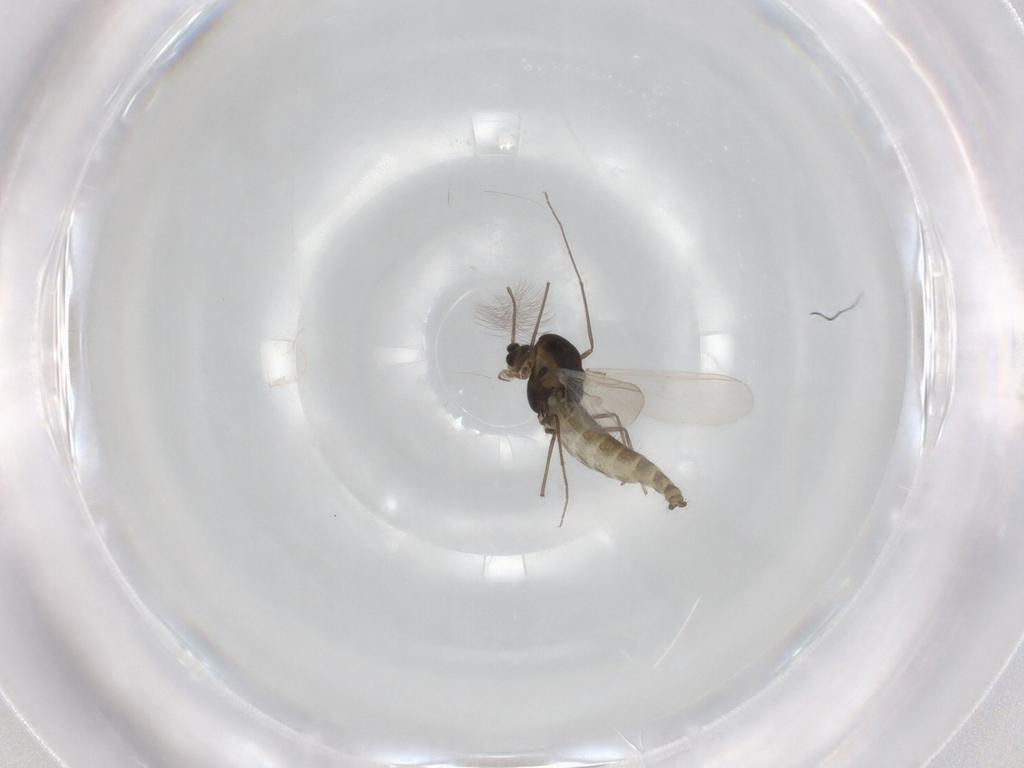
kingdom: Animalia
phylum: Arthropoda
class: Insecta
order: Diptera
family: Chironomidae
